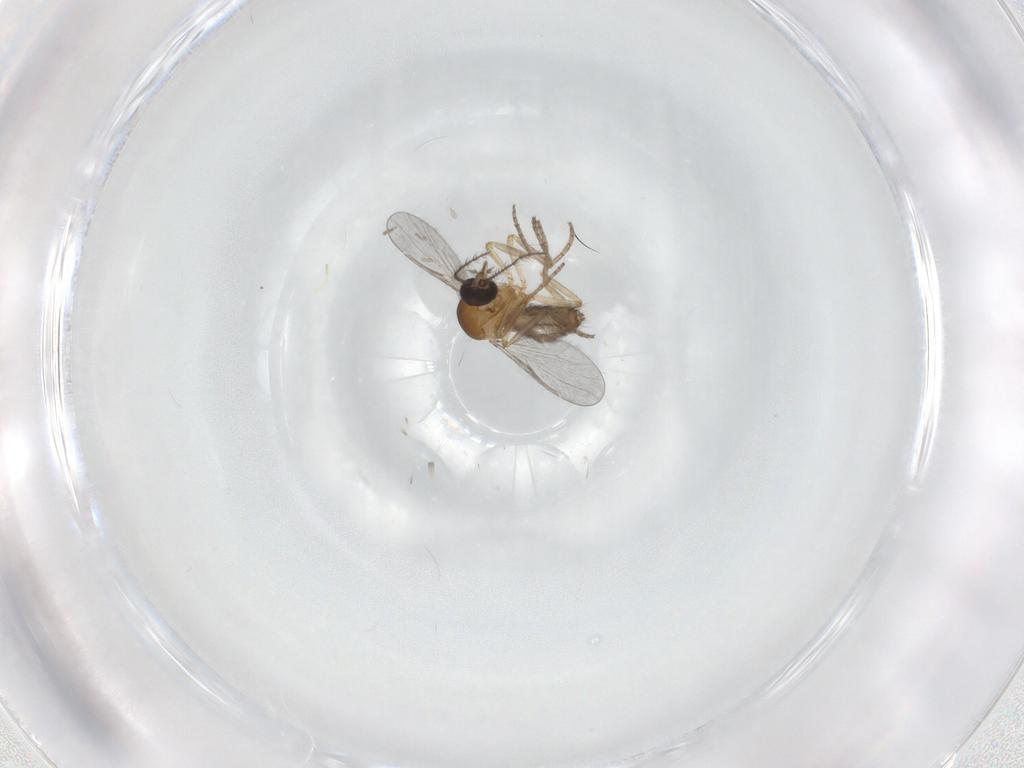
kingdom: Animalia
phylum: Arthropoda
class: Insecta
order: Diptera
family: Ceratopogonidae
